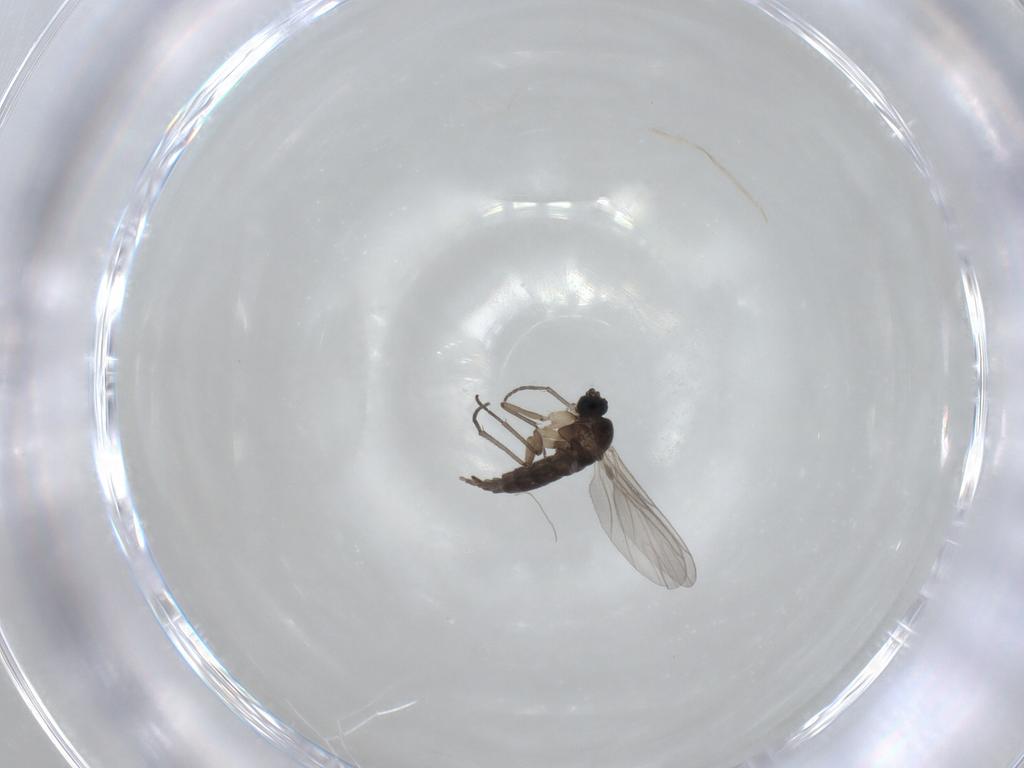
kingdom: Animalia
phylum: Arthropoda
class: Insecta
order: Diptera
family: Sciaridae
